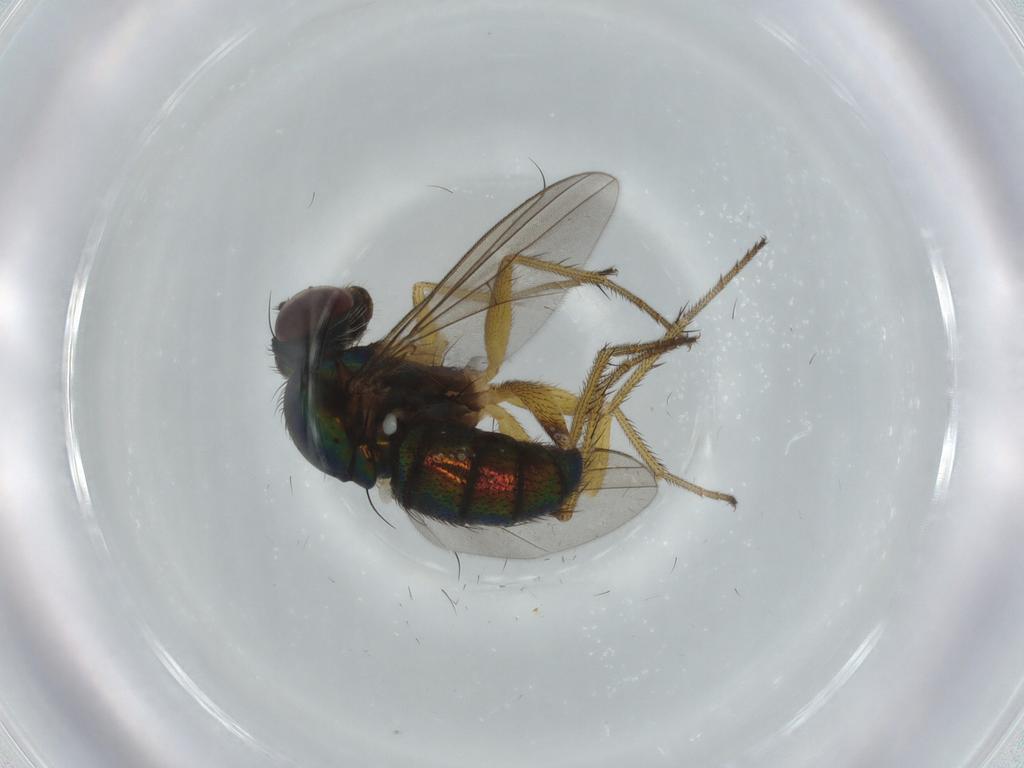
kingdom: Animalia
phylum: Arthropoda
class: Insecta
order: Diptera
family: Dolichopodidae
